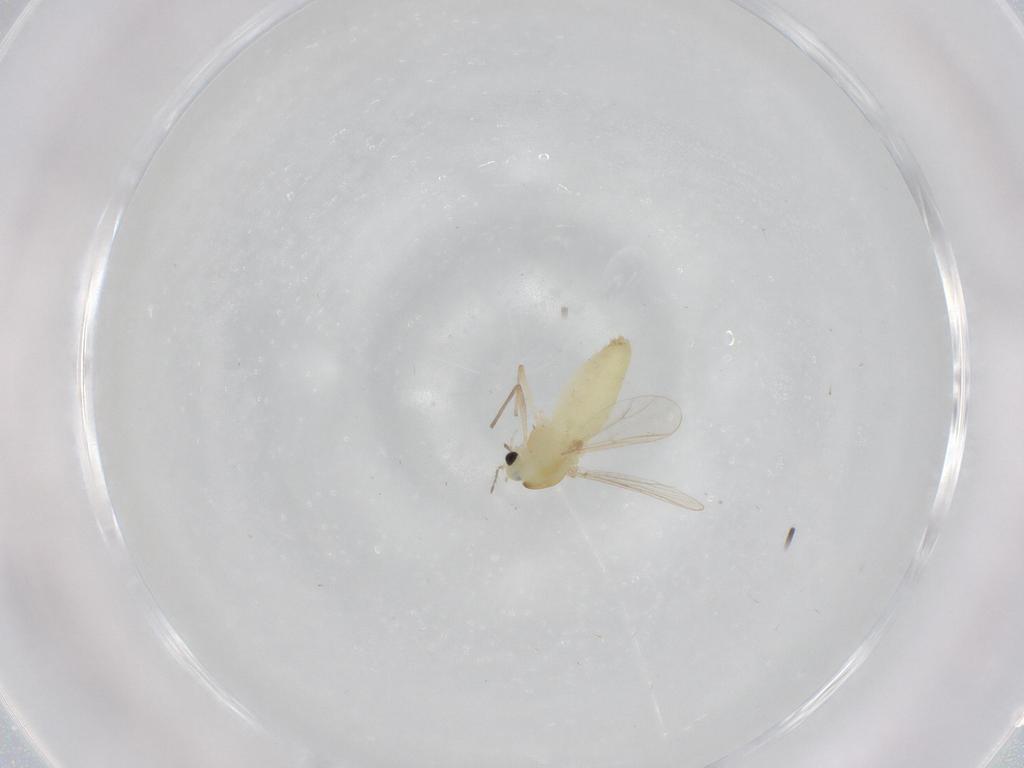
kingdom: Animalia
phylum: Arthropoda
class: Insecta
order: Diptera
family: Chironomidae
